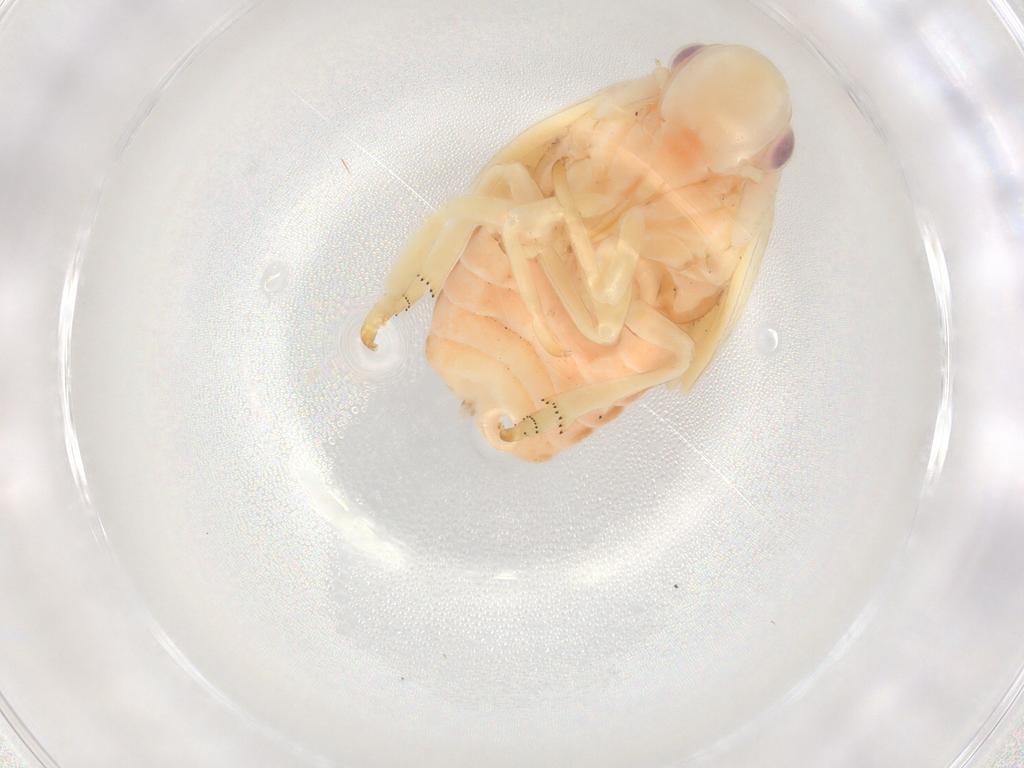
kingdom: Animalia
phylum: Arthropoda
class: Insecta
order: Hemiptera
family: Flatidae
